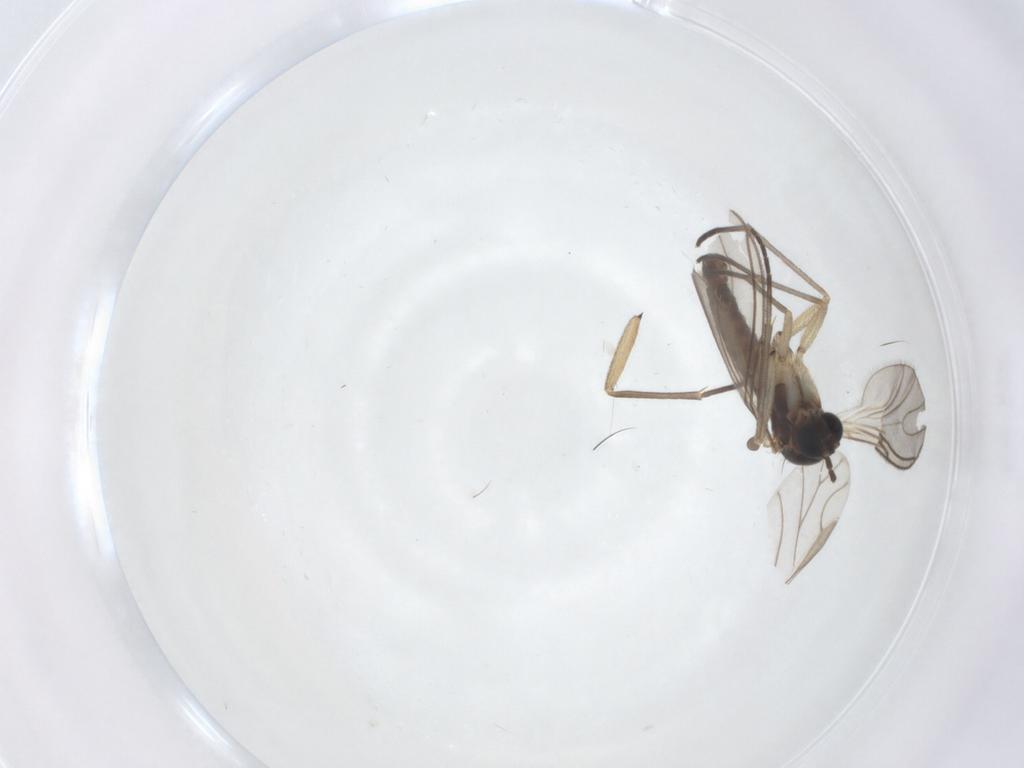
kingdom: Animalia
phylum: Arthropoda
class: Insecta
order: Diptera
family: Sciaridae
